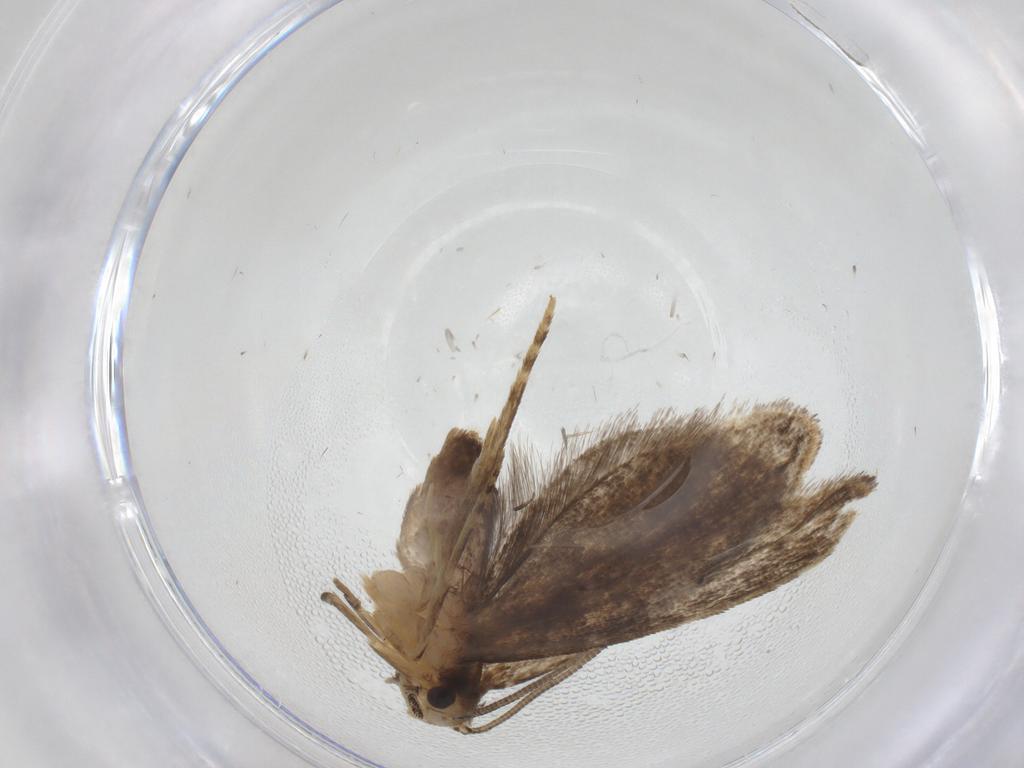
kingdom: Animalia
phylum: Arthropoda
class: Insecta
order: Lepidoptera
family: Dryadaulidae
